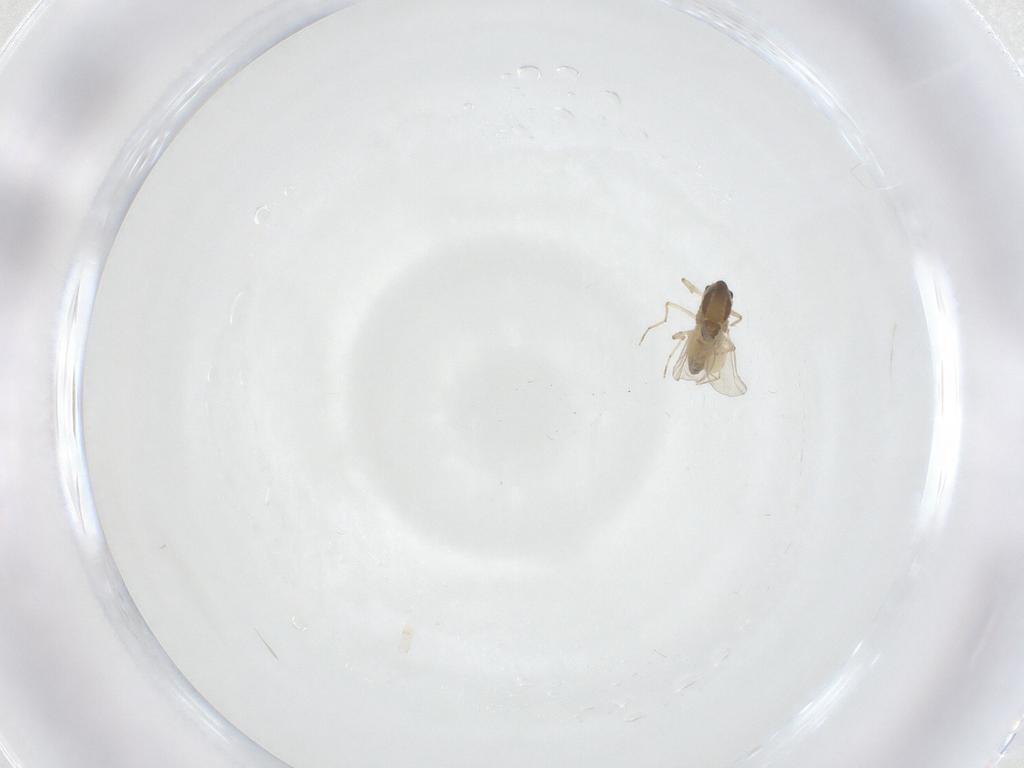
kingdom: Animalia
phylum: Arthropoda
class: Insecta
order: Diptera
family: Chironomidae
